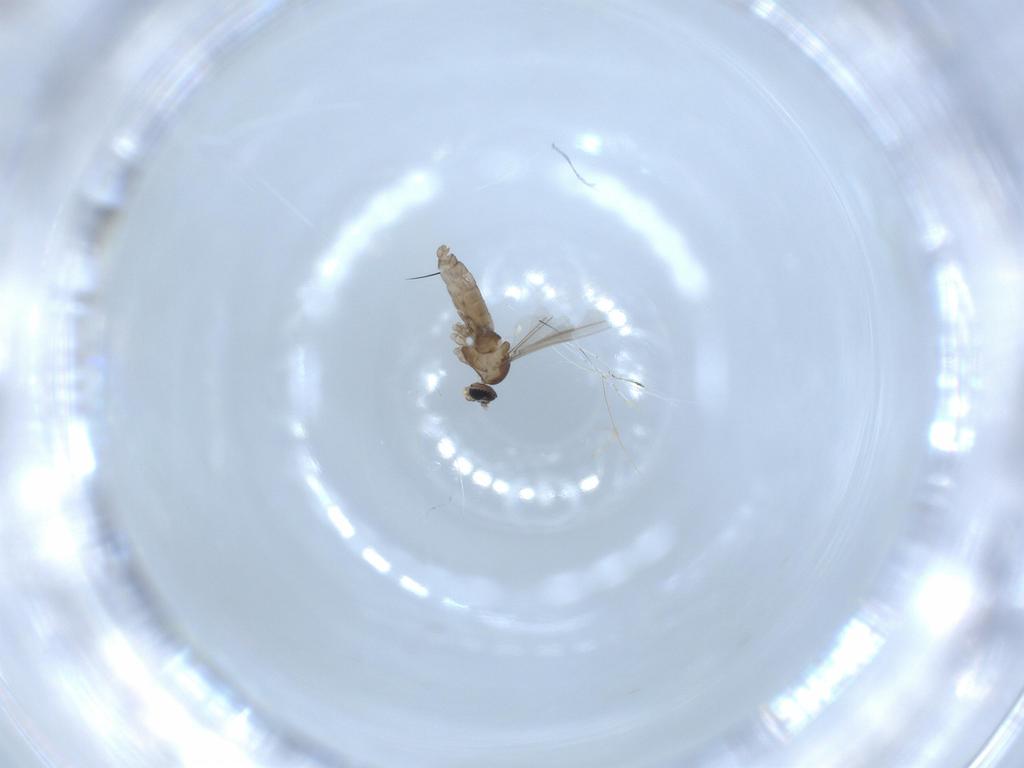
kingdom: Animalia
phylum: Arthropoda
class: Insecta
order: Diptera
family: Cecidomyiidae
